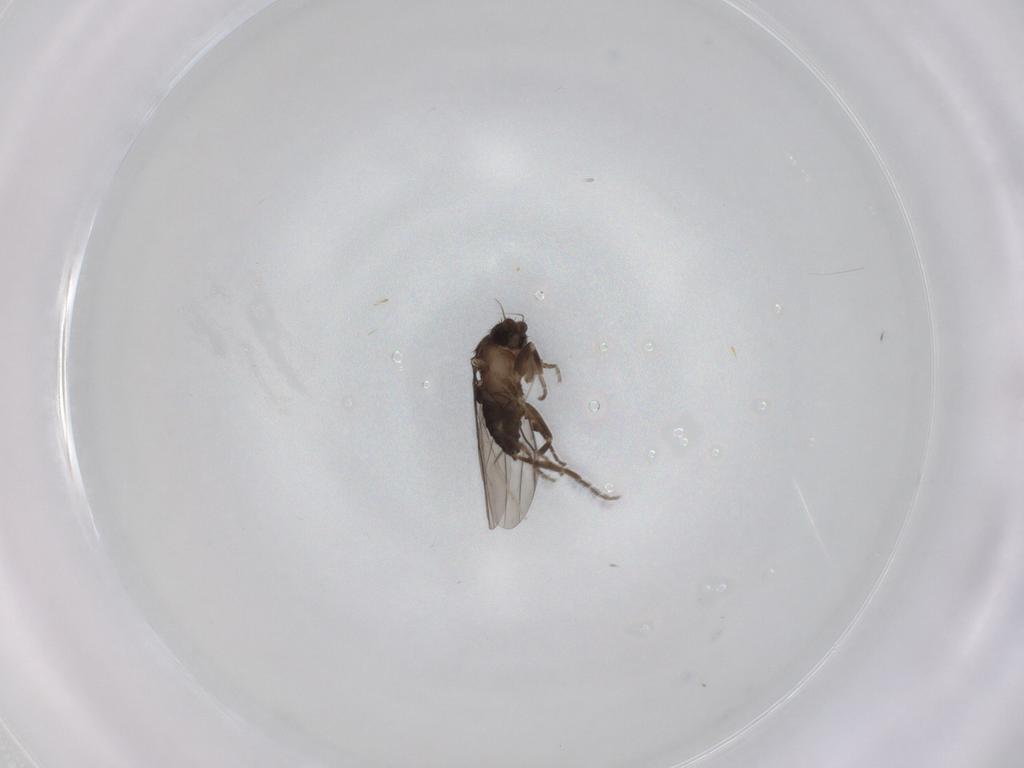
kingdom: Animalia
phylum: Arthropoda
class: Insecta
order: Diptera
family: Cecidomyiidae
